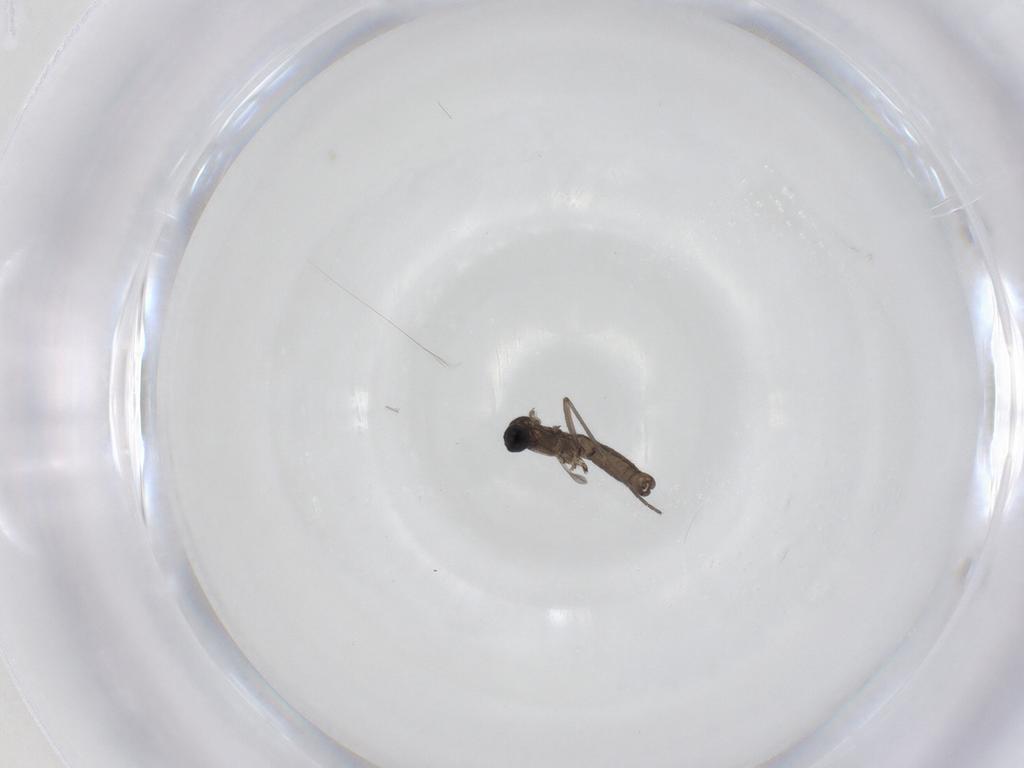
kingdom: Animalia
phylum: Arthropoda
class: Insecta
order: Diptera
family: Sciaridae
